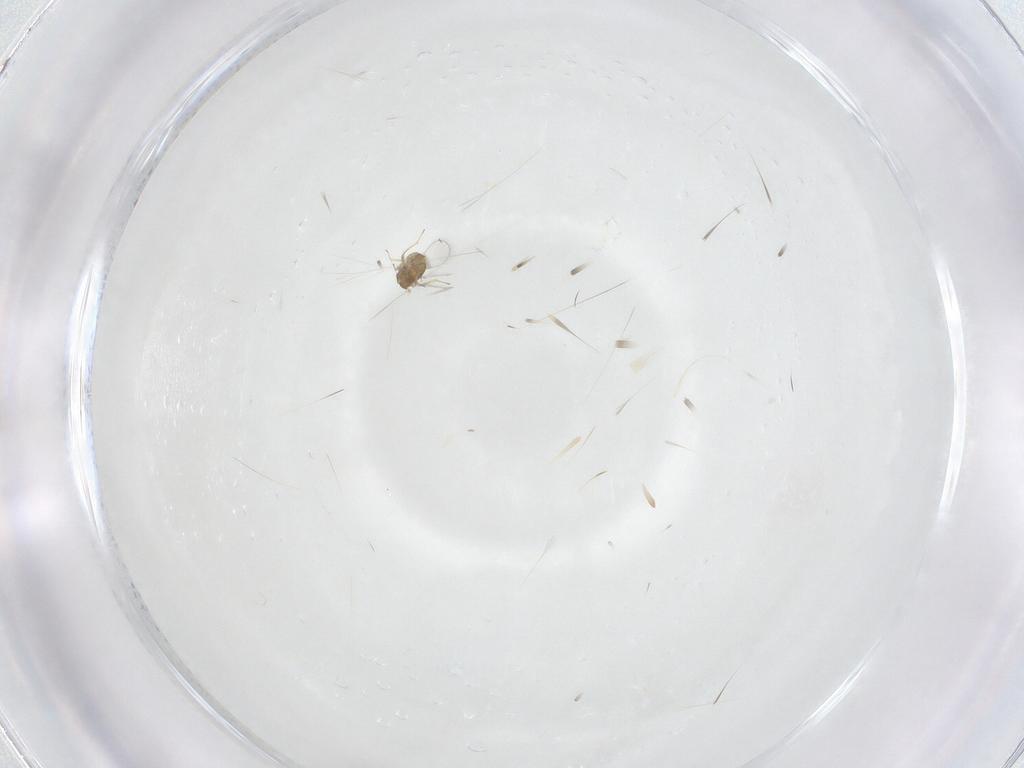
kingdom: Animalia
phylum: Arthropoda
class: Insecta
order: Hymenoptera
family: Trichogrammatidae
